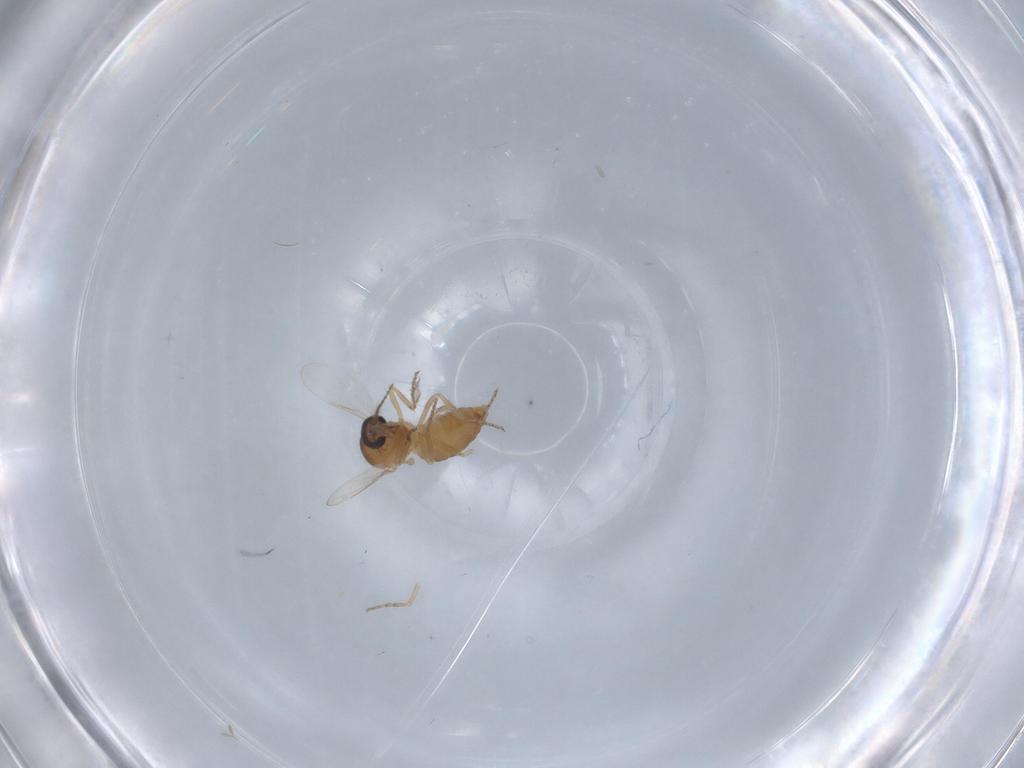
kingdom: Animalia
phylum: Arthropoda
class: Insecta
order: Diptera
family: Ceratopogonidae
